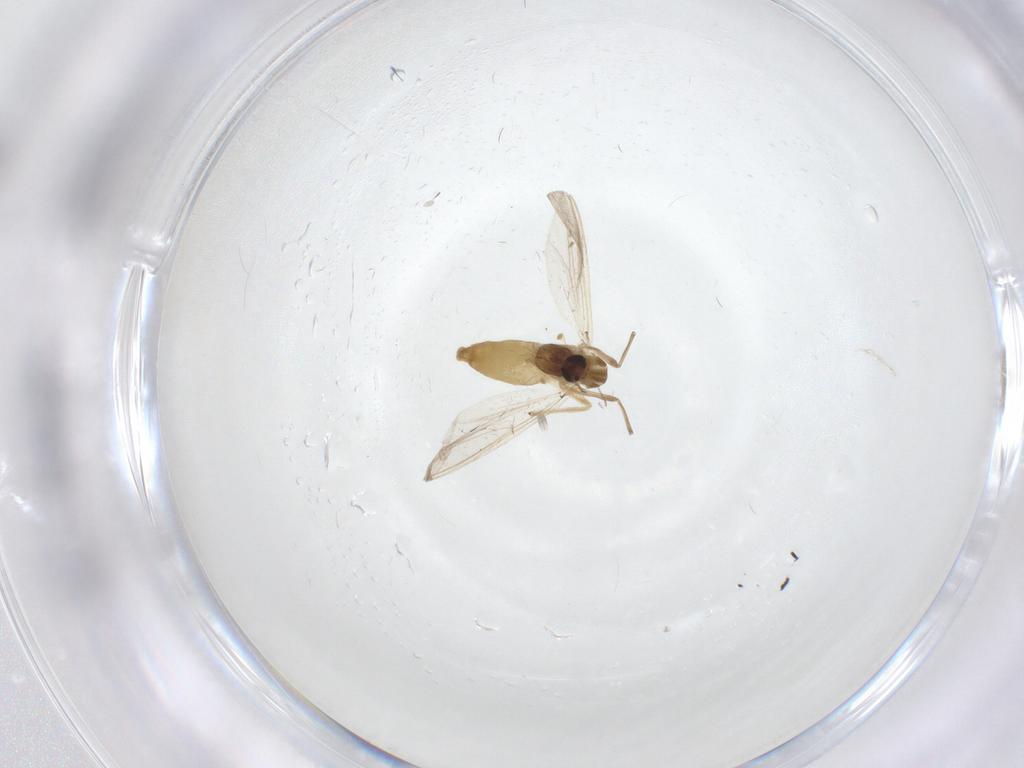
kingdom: Animalia
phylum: Arthropoda
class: Insecta
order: Diptera
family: Chironomidae
